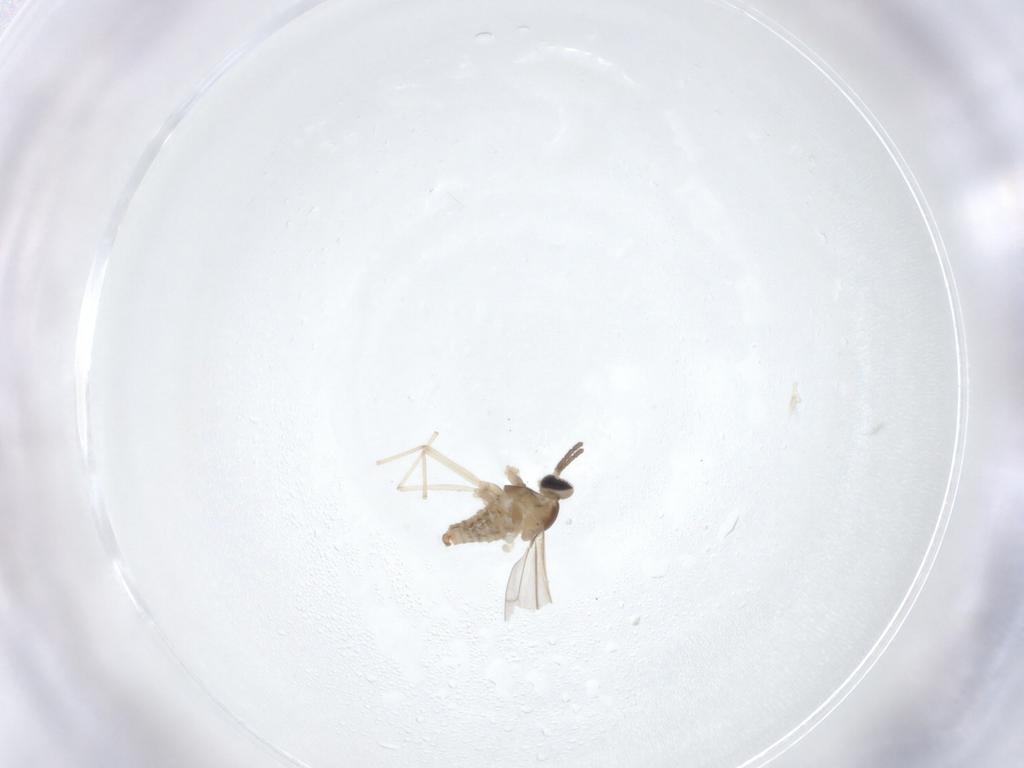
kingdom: Animalia
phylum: Arthropoda
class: Insecta
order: Diptera
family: Cecidomyiidae
